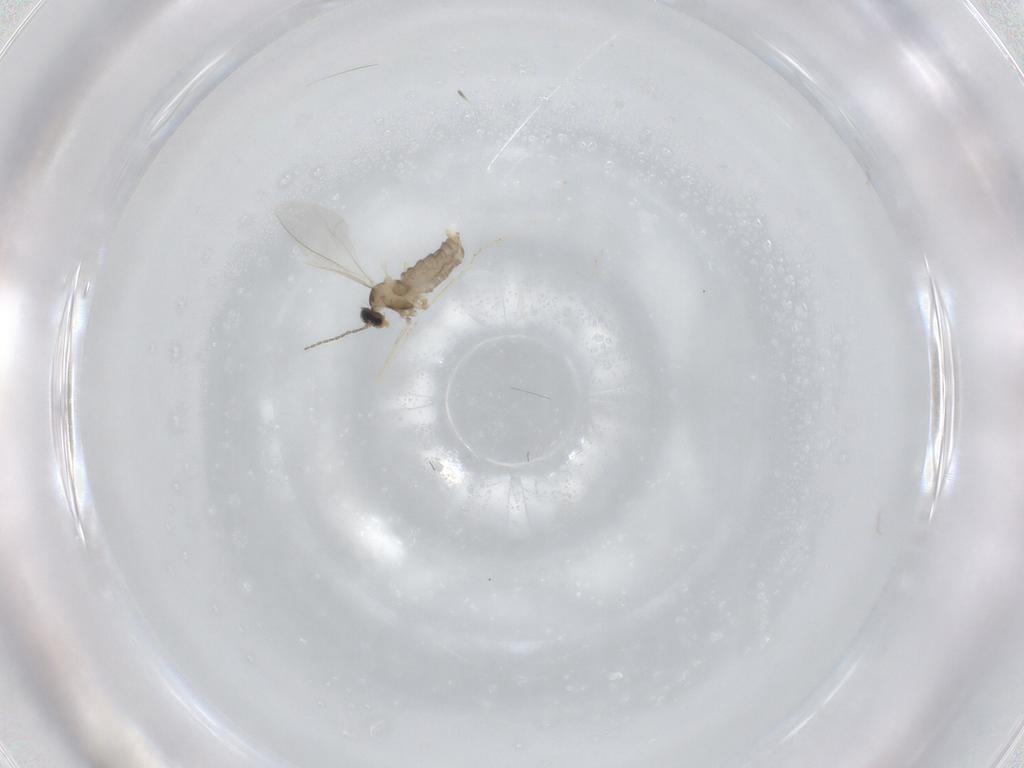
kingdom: Animalia
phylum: Arthropoda
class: Insecta
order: Diptera
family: Cecidomyiidae
